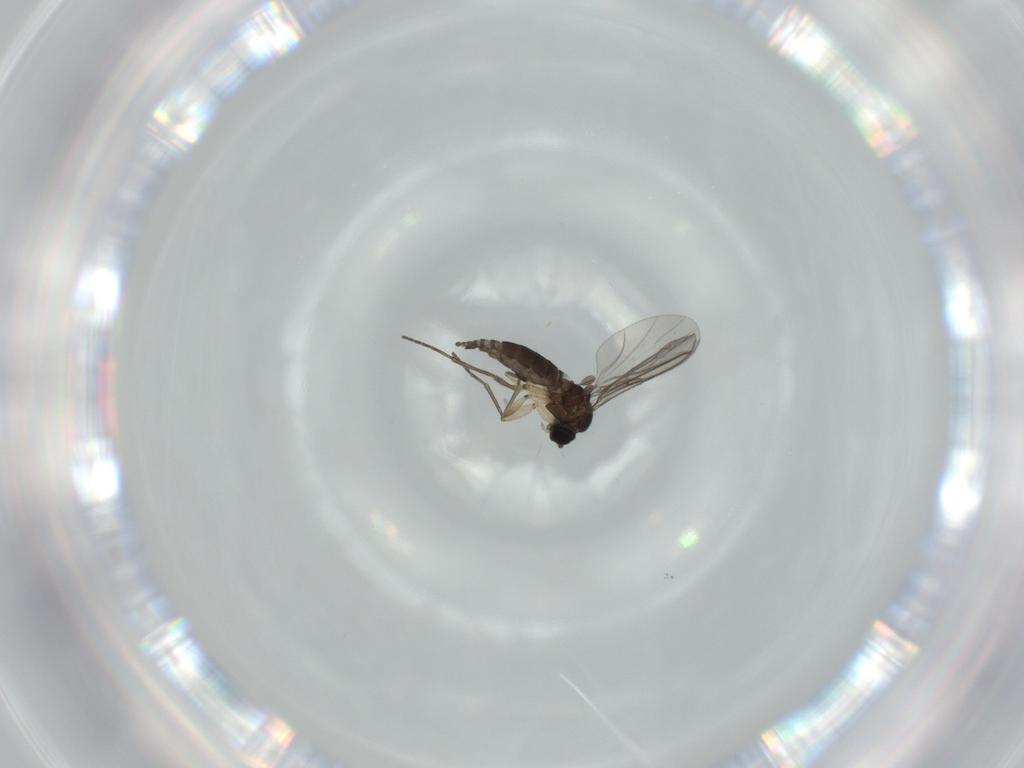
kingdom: Animalia
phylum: Arthropoda
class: Insecta
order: Diptera
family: Sciaridae
